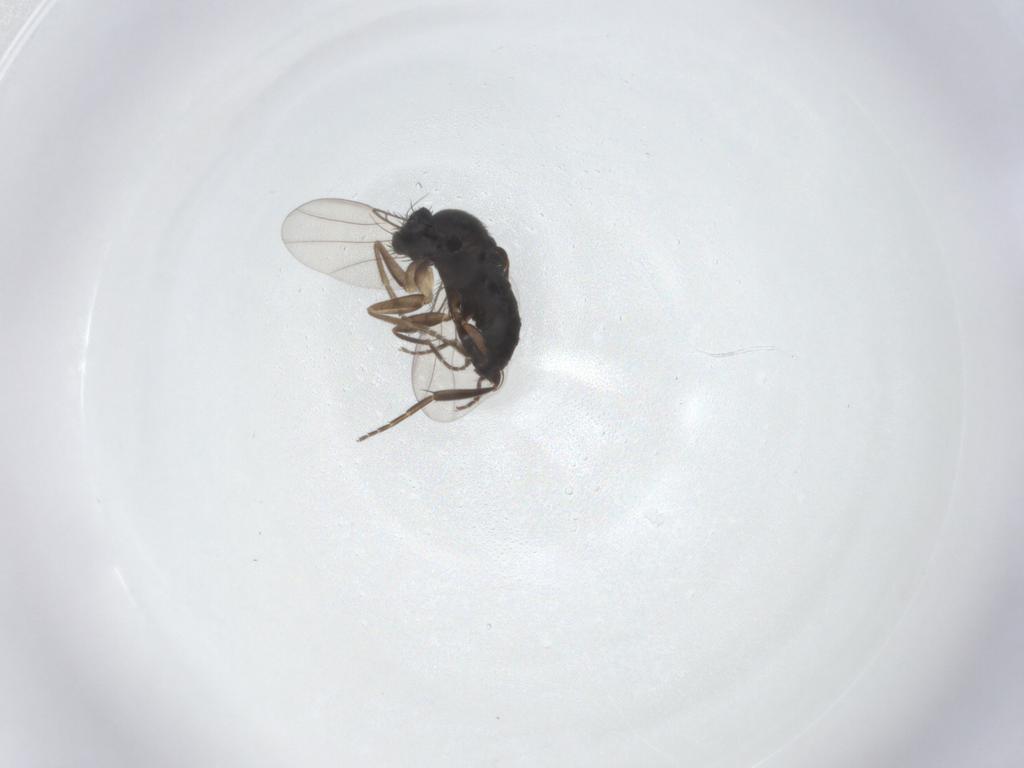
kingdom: Animalia
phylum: Arthropoda
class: Insecta
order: Diptera
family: Phoridae
